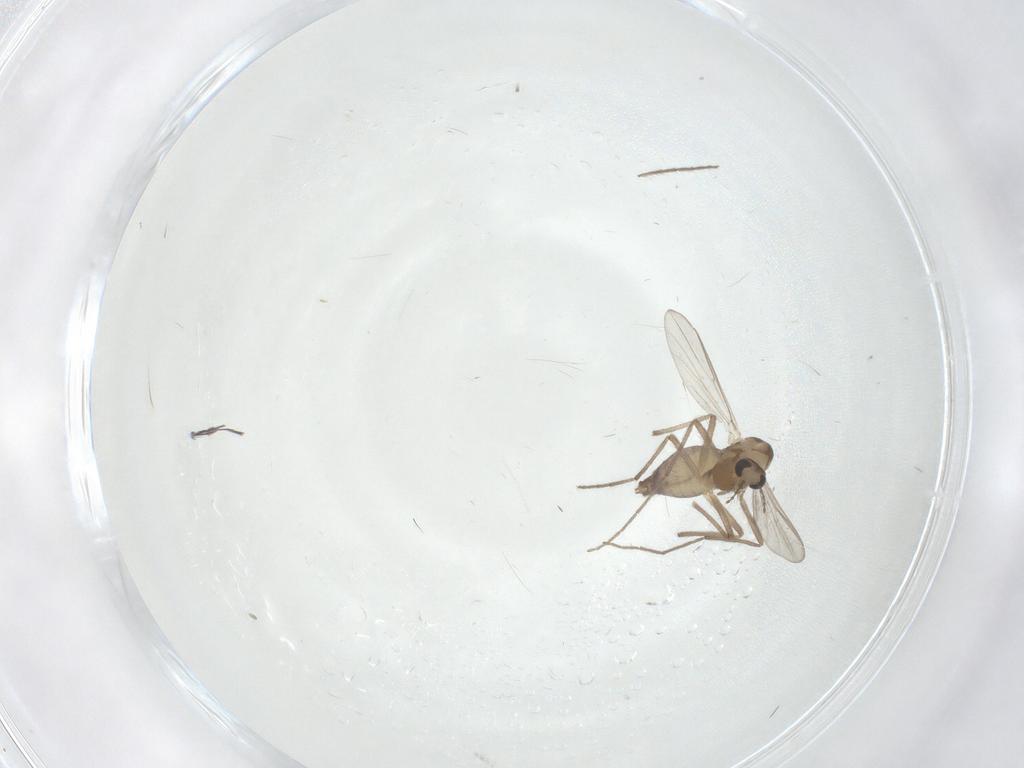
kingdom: Animalia
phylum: Arthropoda
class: Insecta
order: Diptera
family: Chironomidae
